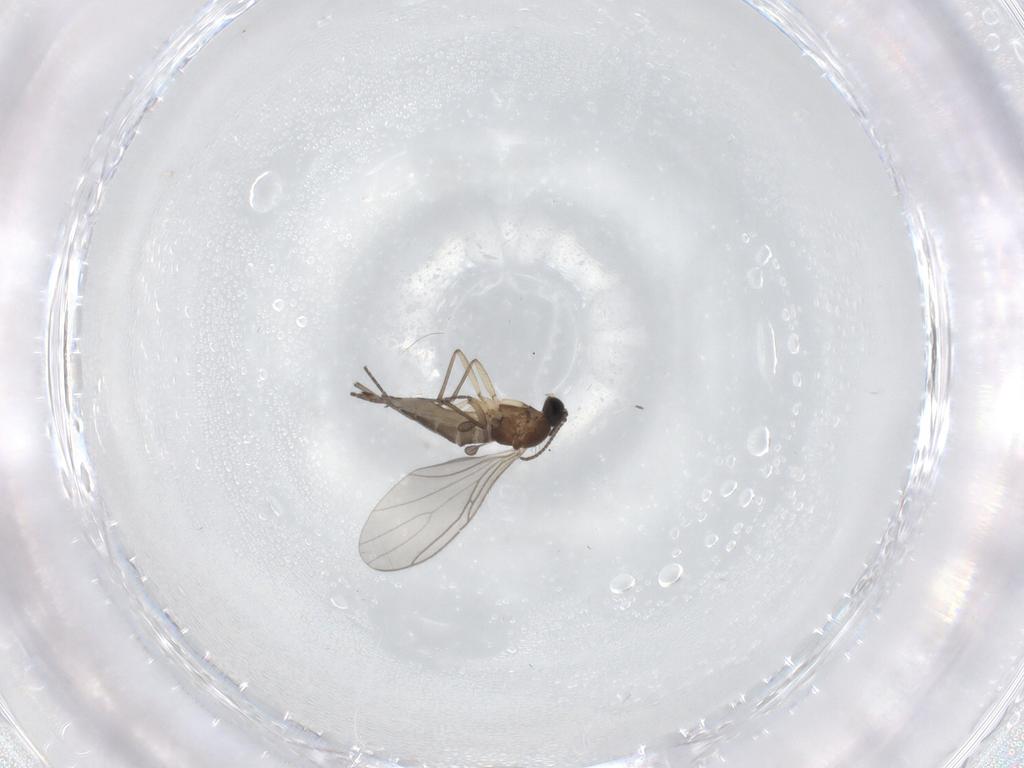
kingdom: Animalia
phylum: Arthropoda
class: Insecta
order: Diptera
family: Sciaridae
